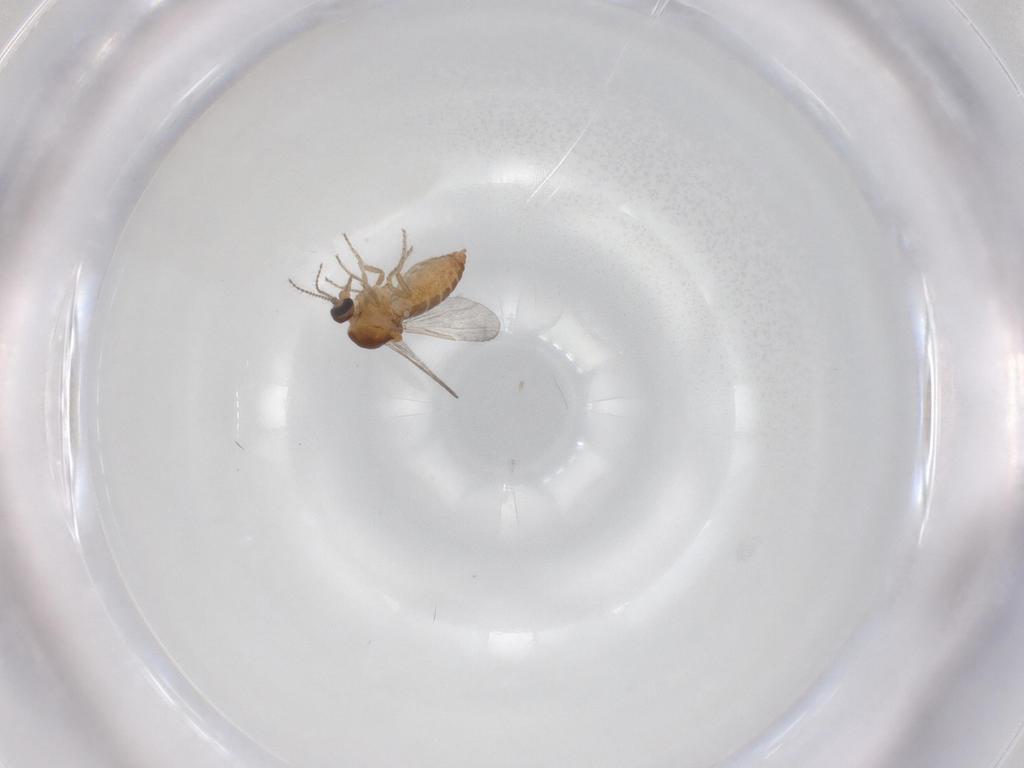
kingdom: Animalia
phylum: Arthropoda
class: Insecta
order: Diptera
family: Ceratopogonidae
